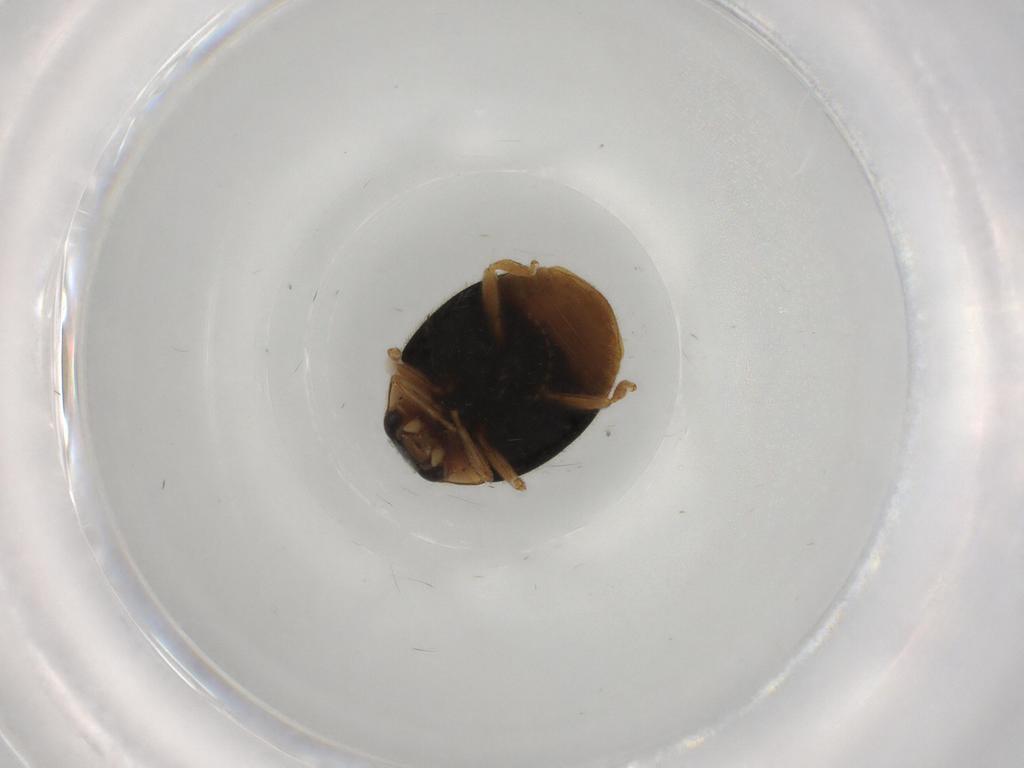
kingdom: Animalia
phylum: Arthropoda
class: Insecta
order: Coleoptera
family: Coccinellidae
